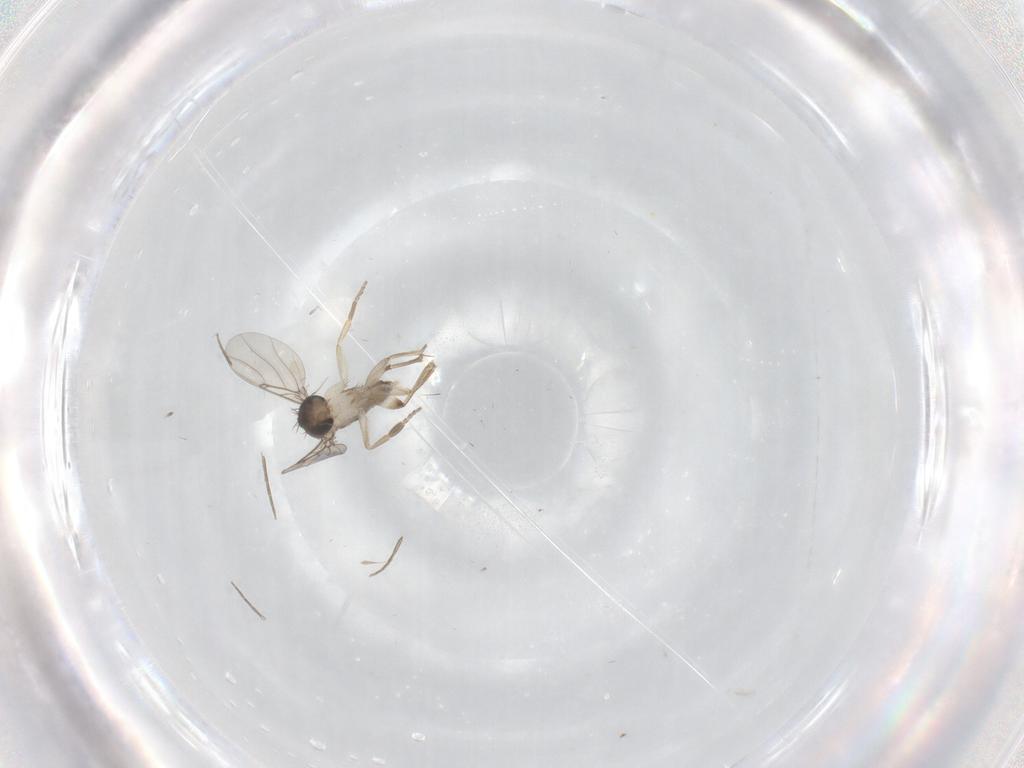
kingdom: Animalia
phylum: Arthropoda
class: Insecta
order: Diptera
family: Phoridae
